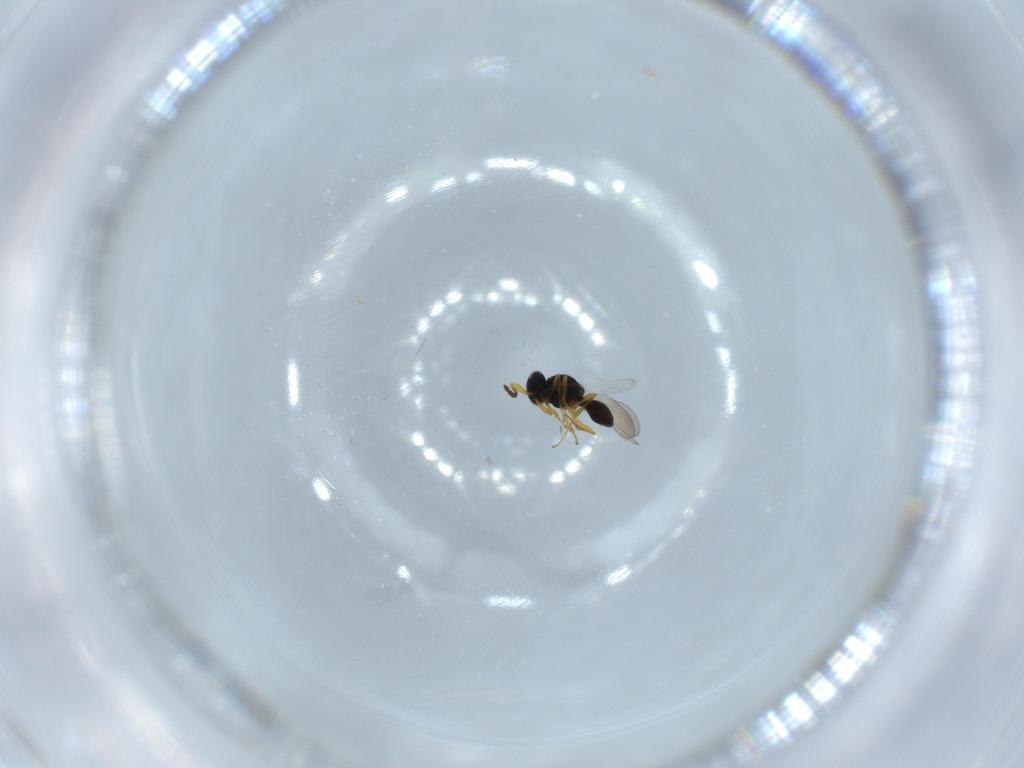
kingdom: Animalia
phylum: Arthropoda
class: Insecta
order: Hymenoptera
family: Platygastridae
